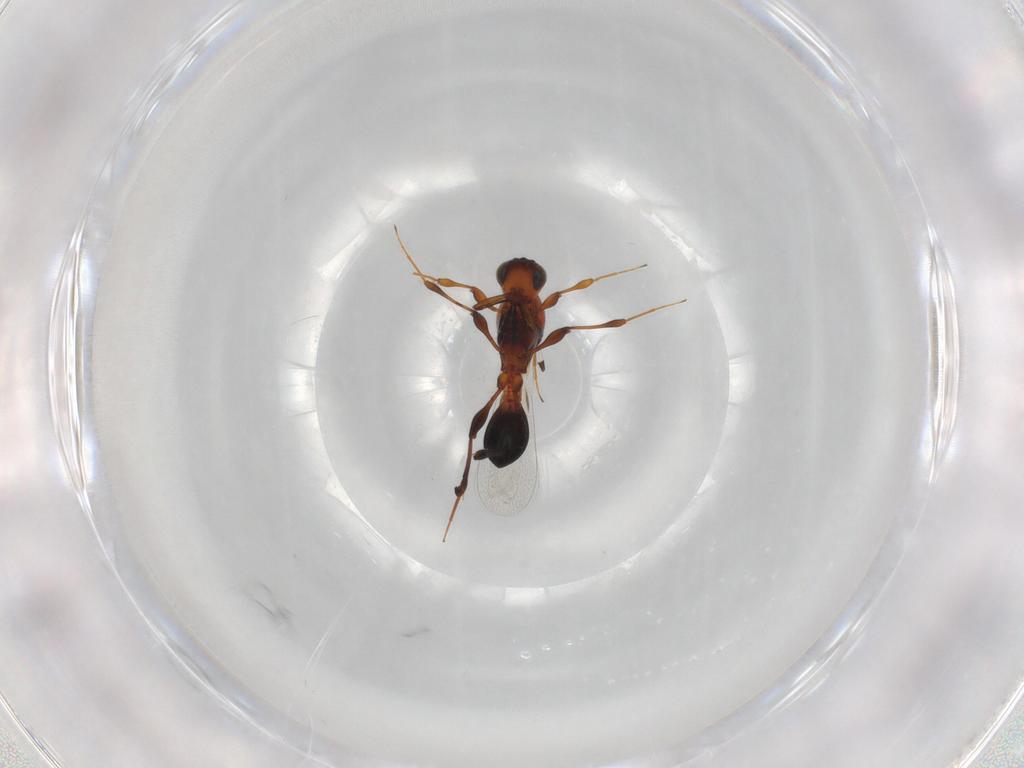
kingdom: Animalia
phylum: Arthropoda
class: Insecta
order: Hymenoptera
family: Platygastridae
